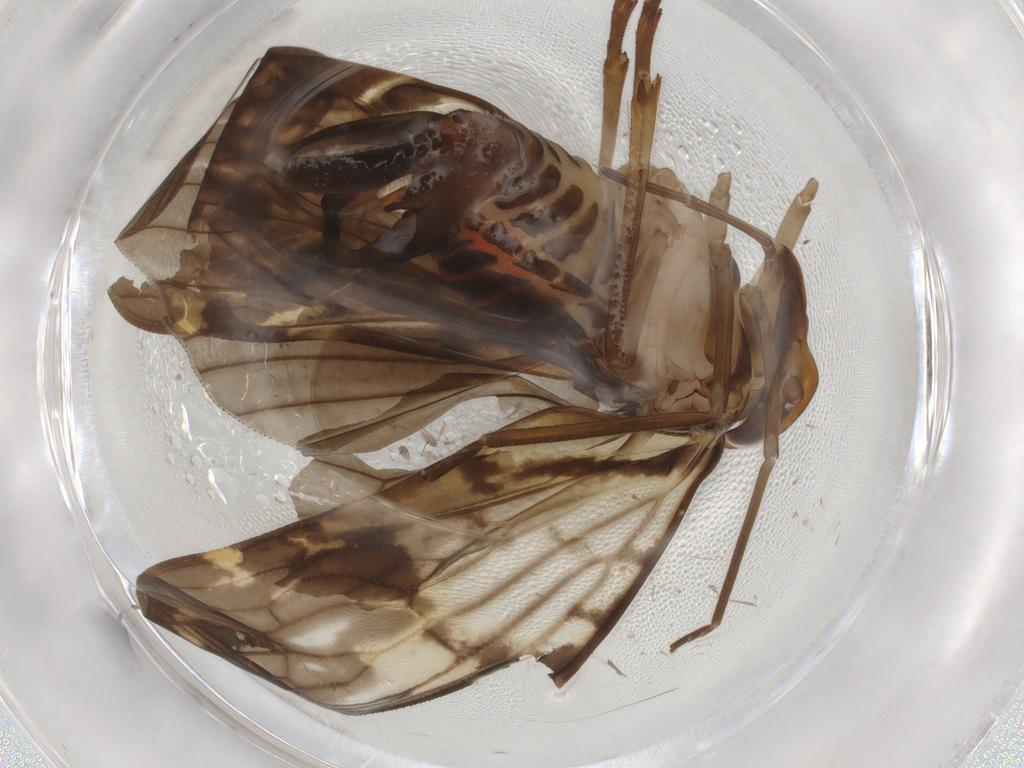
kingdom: Animalia
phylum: Arthropoda
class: Insecta
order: Hemiptera
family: Cixiidae
